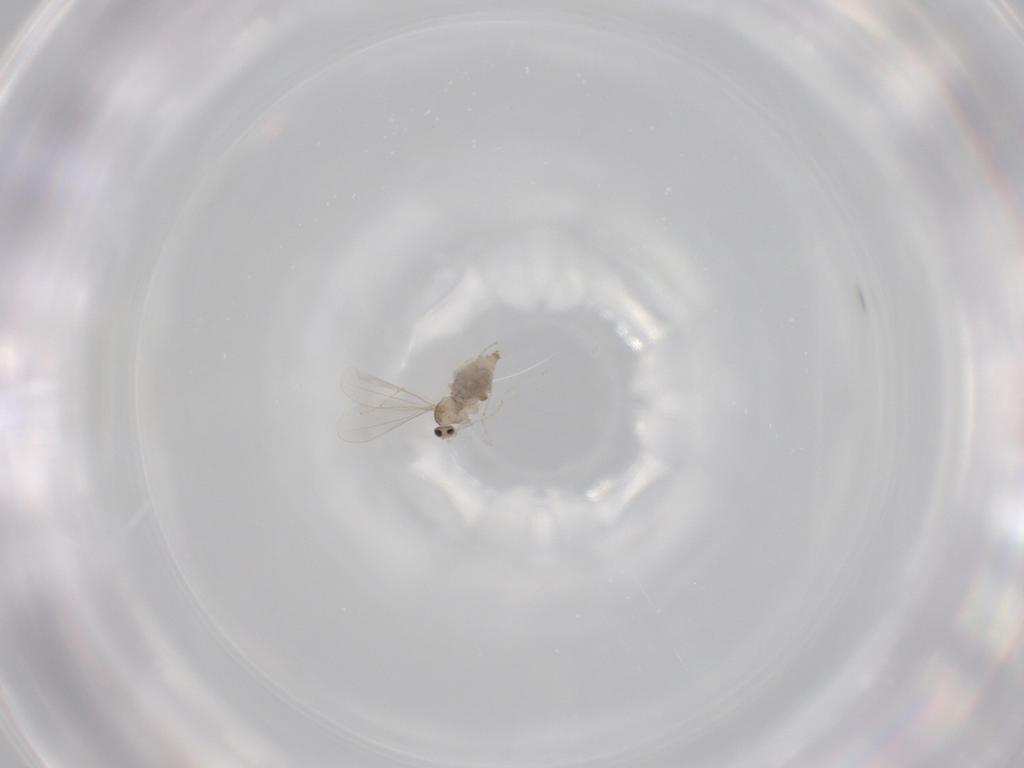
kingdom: Animalia
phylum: Arthropoda
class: Insecta
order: Diptera
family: Cecidomyiidae
